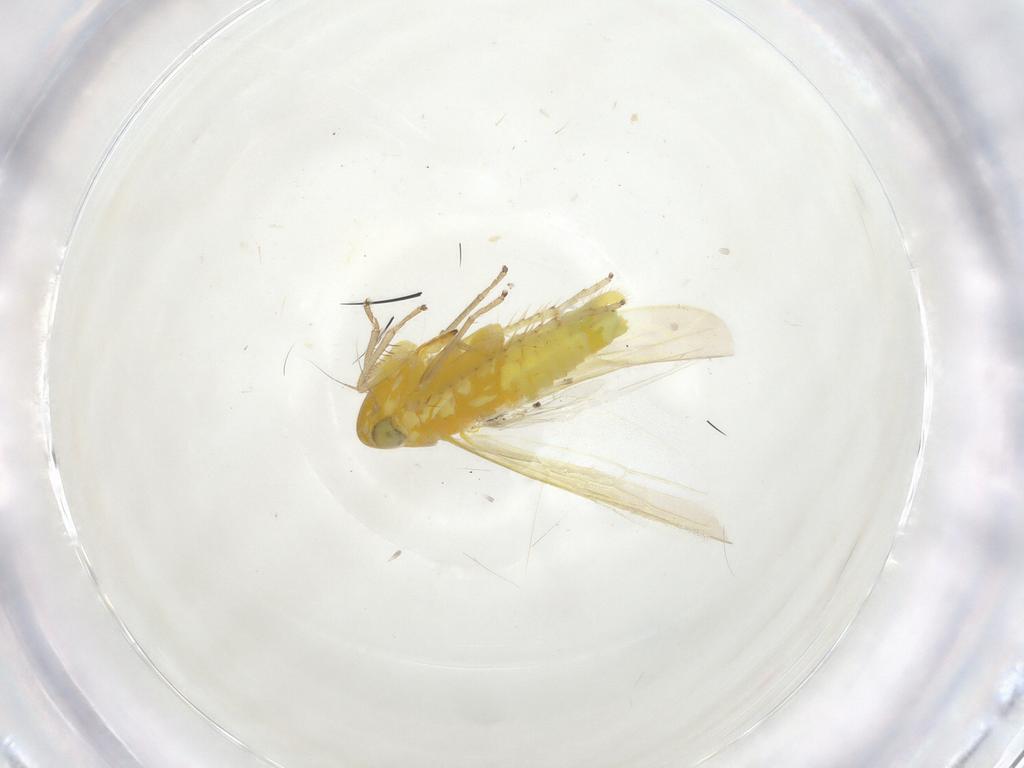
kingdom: Animalia
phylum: Arthropoda
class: Insecta
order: Hemiptera
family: Cicadellidae
